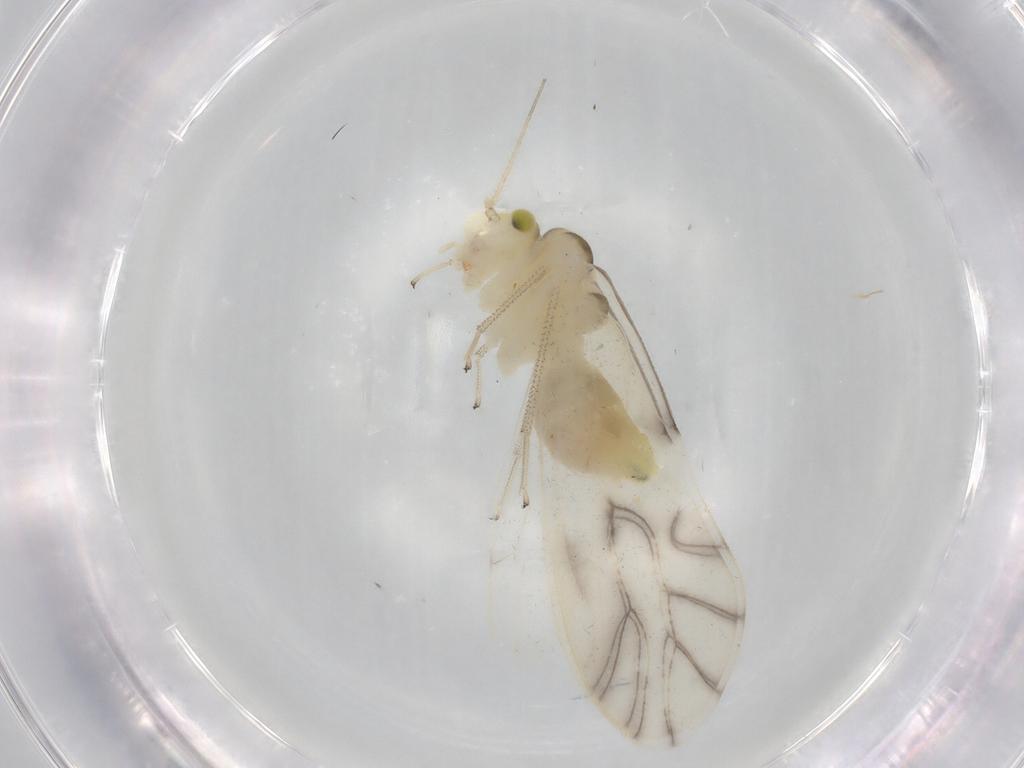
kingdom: Animalia
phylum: Arthropoda
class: Insecta
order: Psocodea
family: Caeciliusidae
